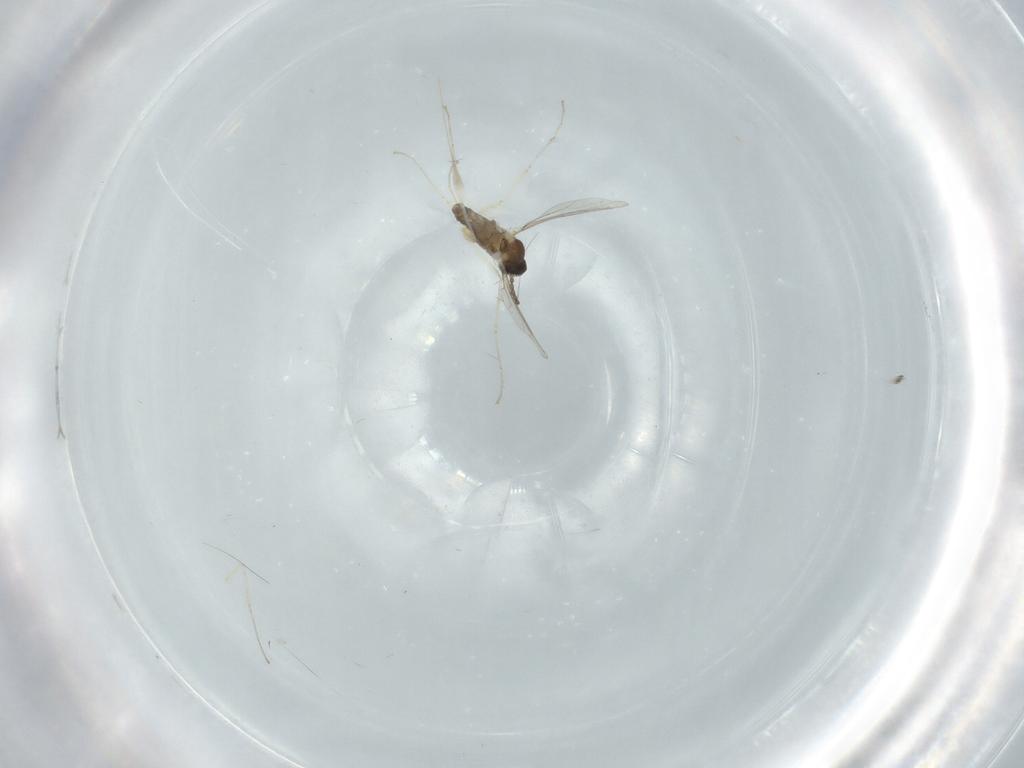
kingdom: Animalia
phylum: Arthropoda
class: Insecta
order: Diptera
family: Cecidomyiidae
